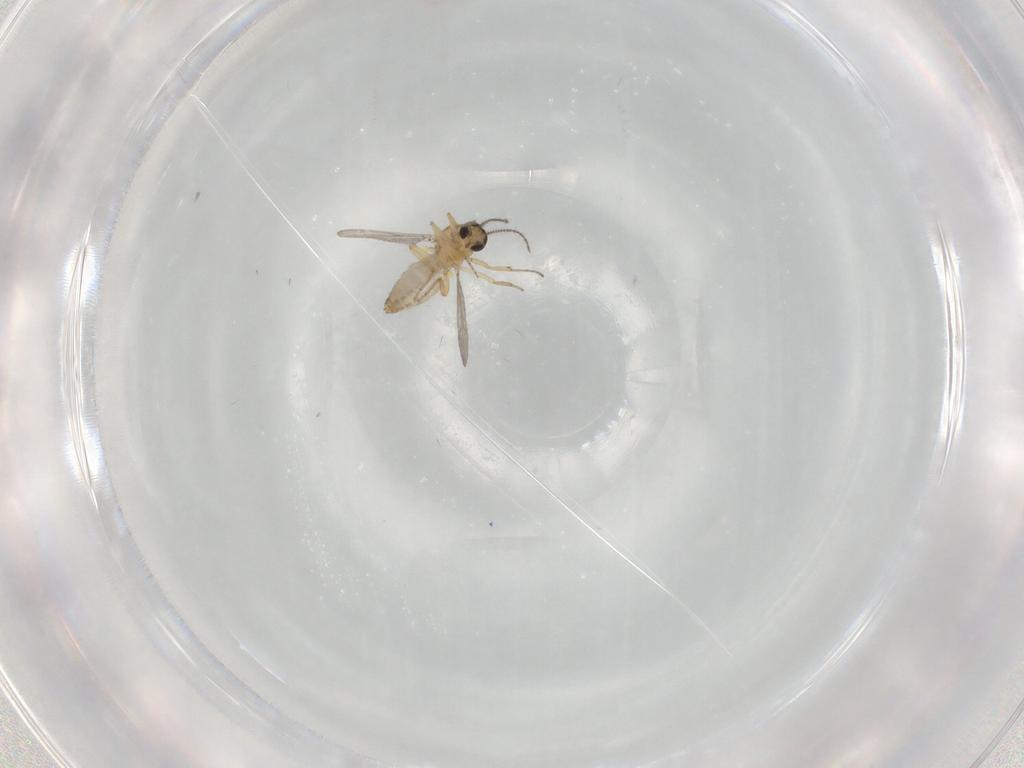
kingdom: Animalia
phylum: Arthropoda
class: Insecta
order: Diptera
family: Ceratopogonidae
